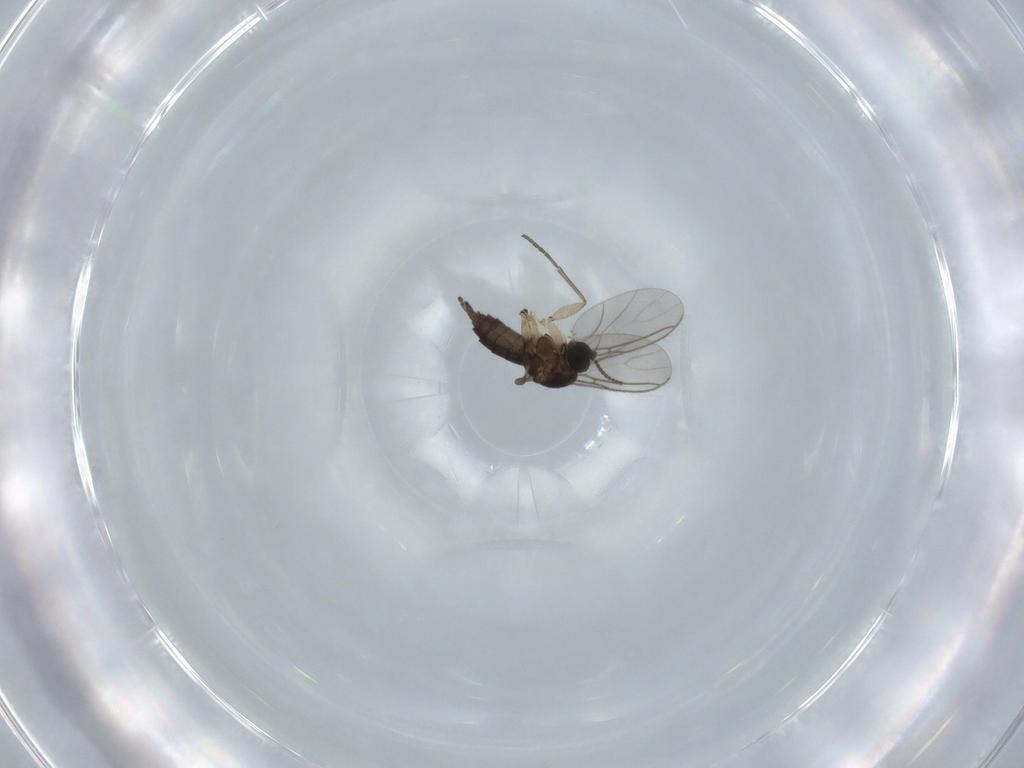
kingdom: Animalia
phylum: Arthropoda
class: Insecta
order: Diptera
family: Sciaridae
